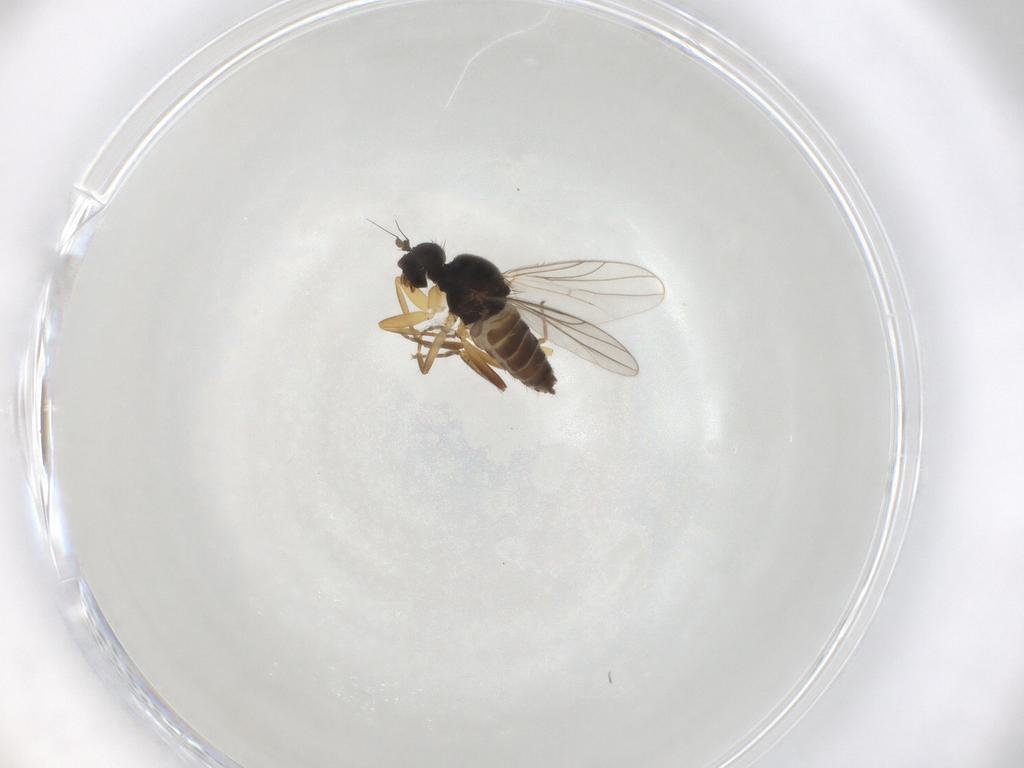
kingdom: Animalia
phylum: Arthropoda
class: Insecta
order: Diptera
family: Hybotidae
